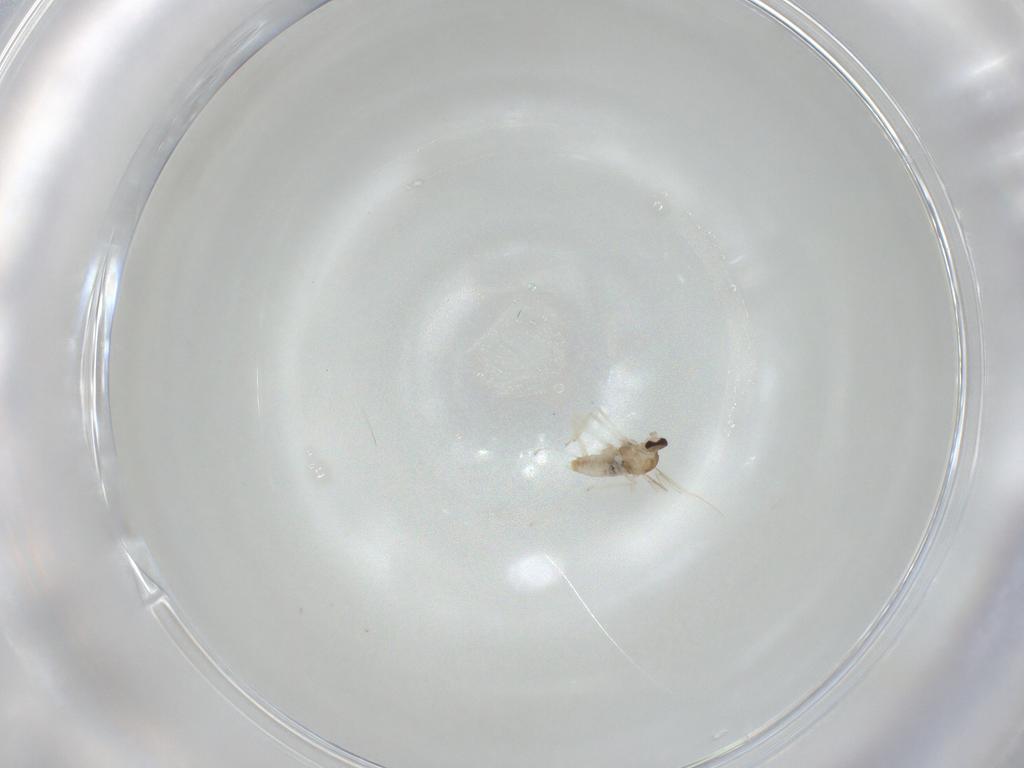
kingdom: Animalia
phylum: Arthropoda
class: Insecta
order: Diptera
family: Cecidomyiidae
